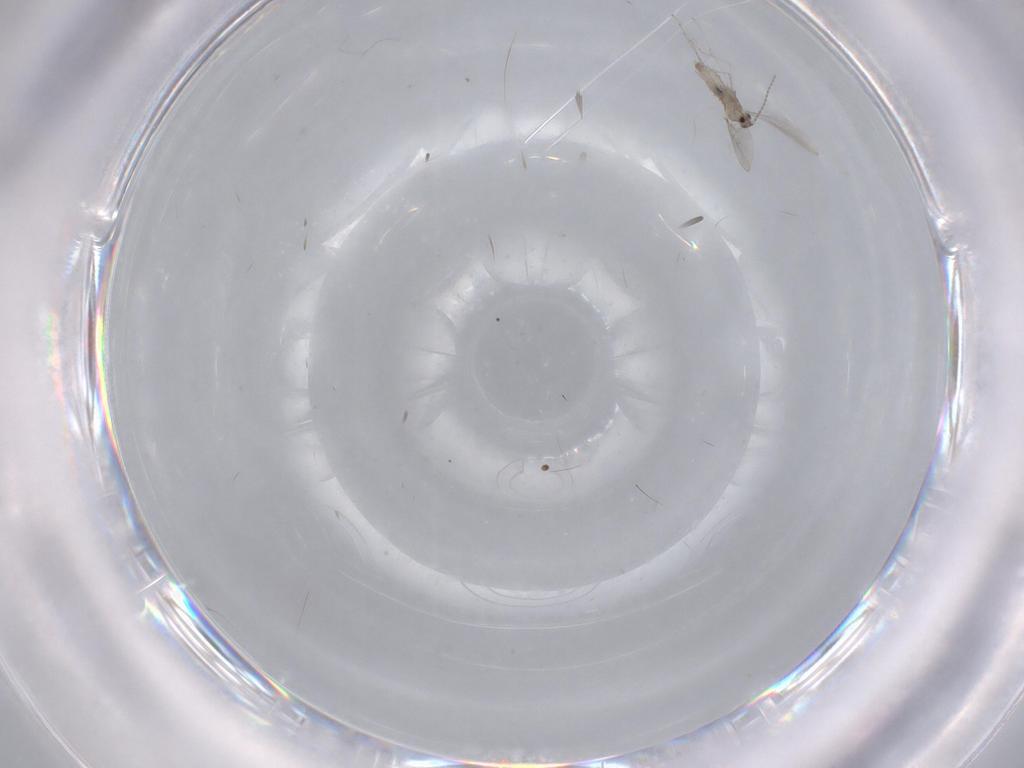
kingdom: Animalia
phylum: Arthropoda
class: Insecta
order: Diptera
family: Cecidomyiidae
